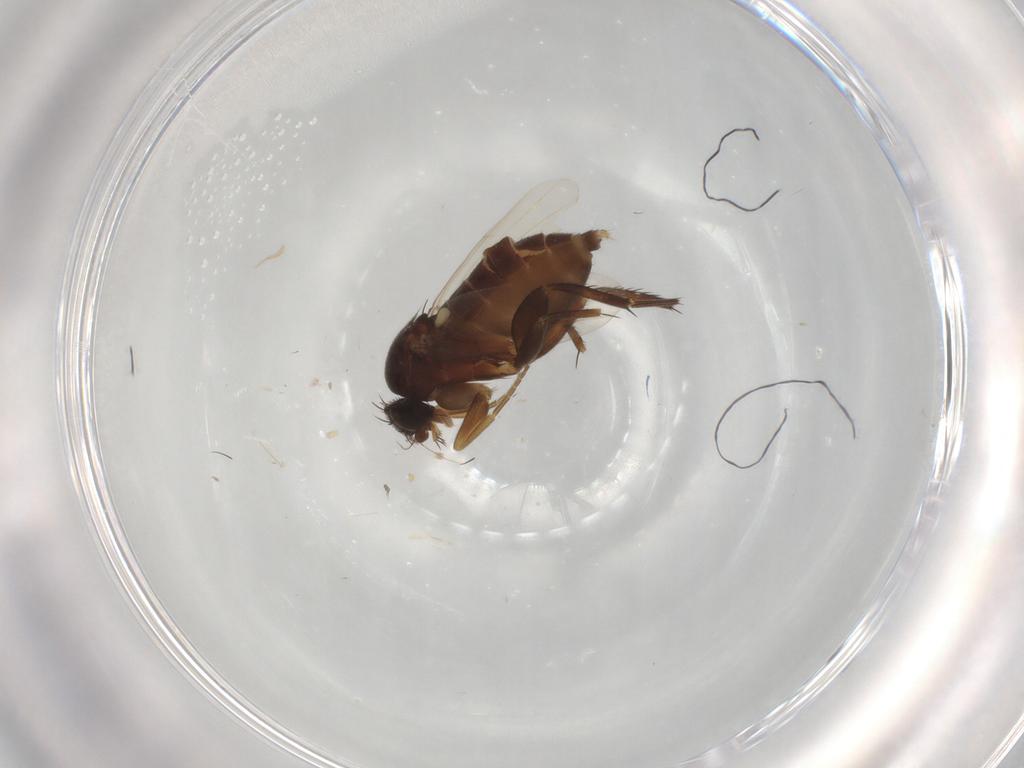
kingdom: Animalia
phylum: Arthropoda
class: Insecta
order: Diptera
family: Phoridae
